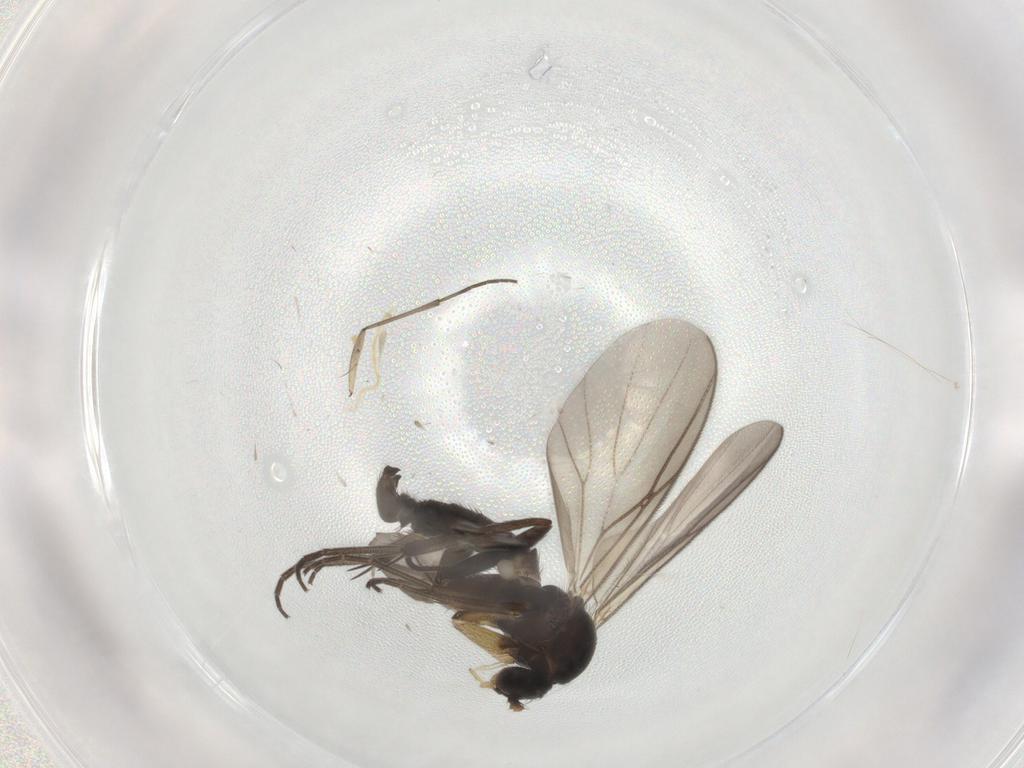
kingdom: Animalia
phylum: Arthropoda
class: Insecta
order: Diptera
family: Mycetophilidae
